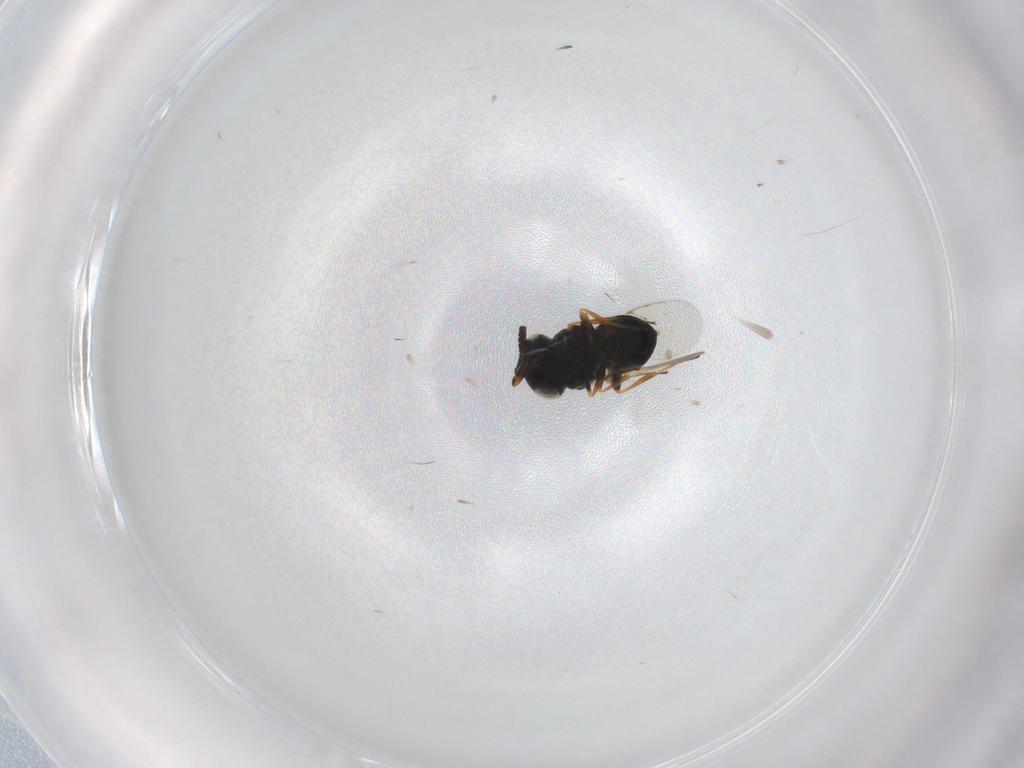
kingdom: Animalia
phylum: Arthropoda
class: Insecta
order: Coleoptera
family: Curculionidae
